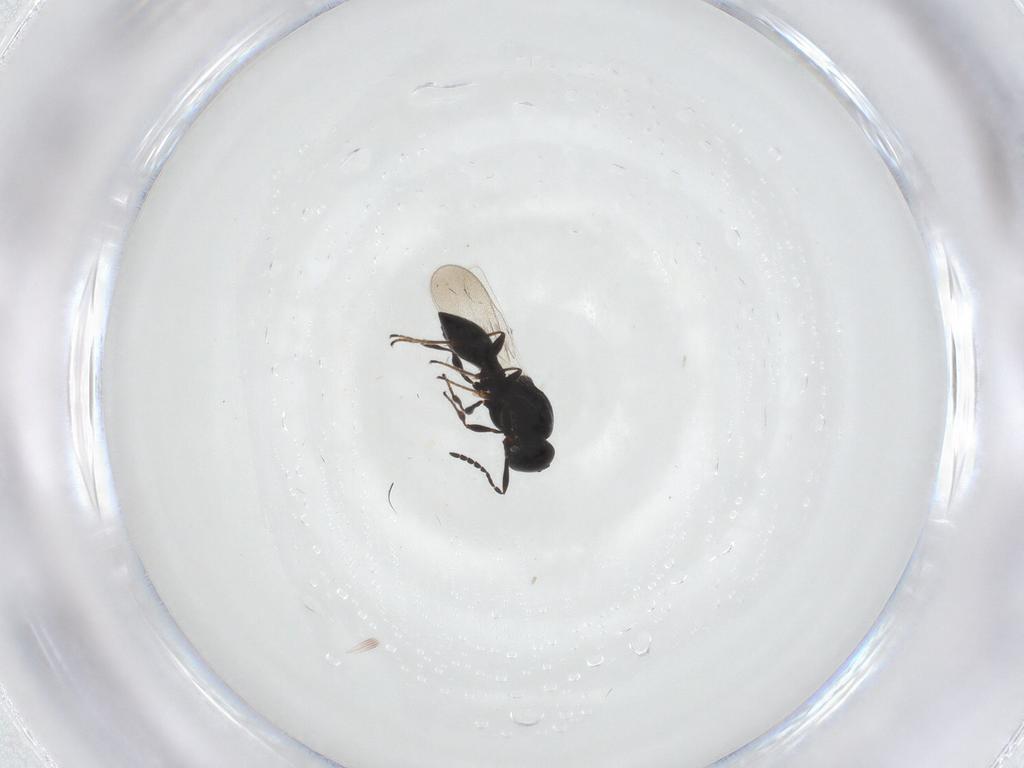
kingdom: Animalia
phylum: Arthropoda
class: Insecta
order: Hymenoptera
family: Platygastridae
